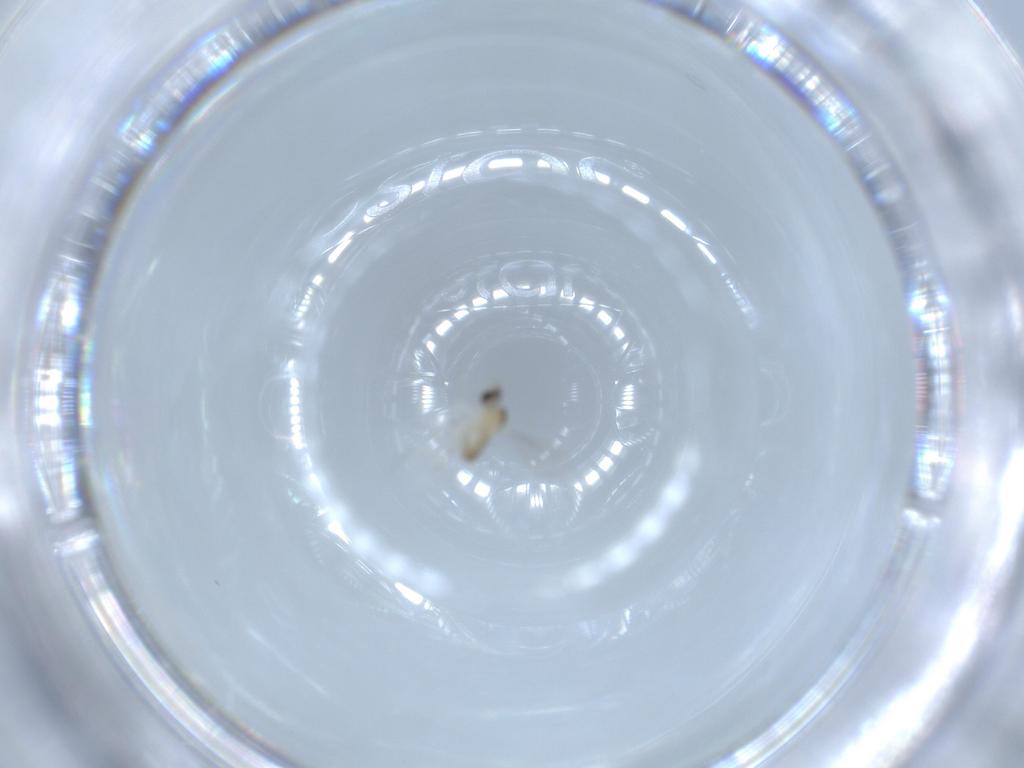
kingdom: Animalia
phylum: Arthropoda
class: Insecta
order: Diptera
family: Cecidomyiidae
